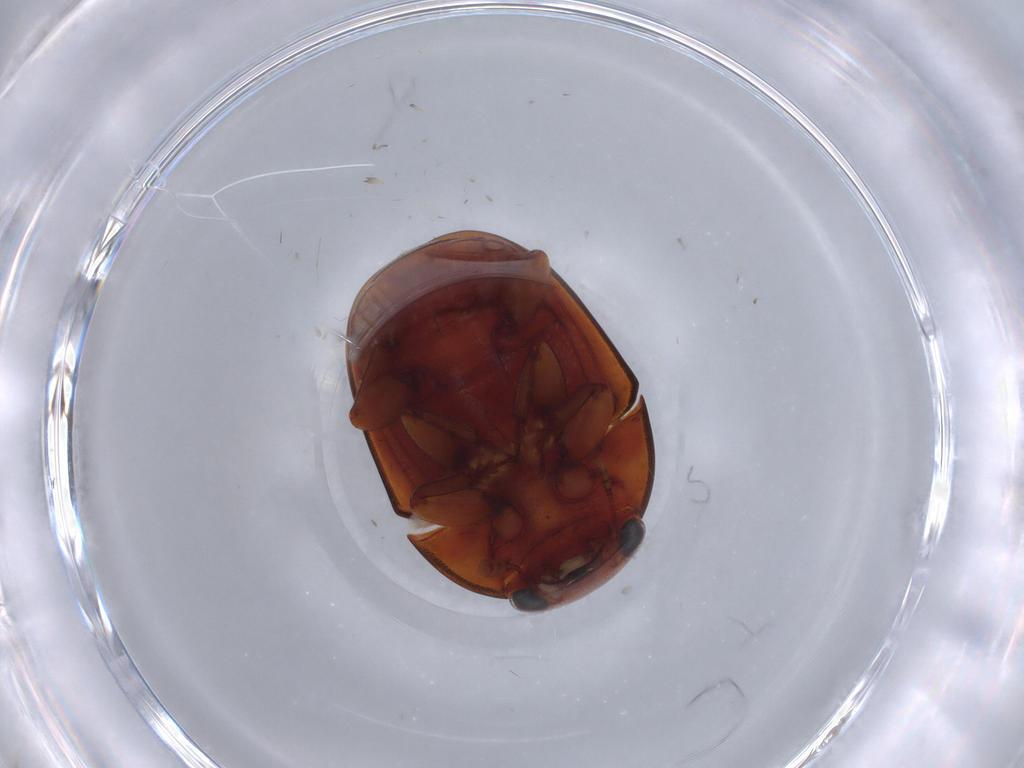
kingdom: Animalia
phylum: Arthropoda
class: Insecta
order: Coleoptera
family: Nitidulidae
